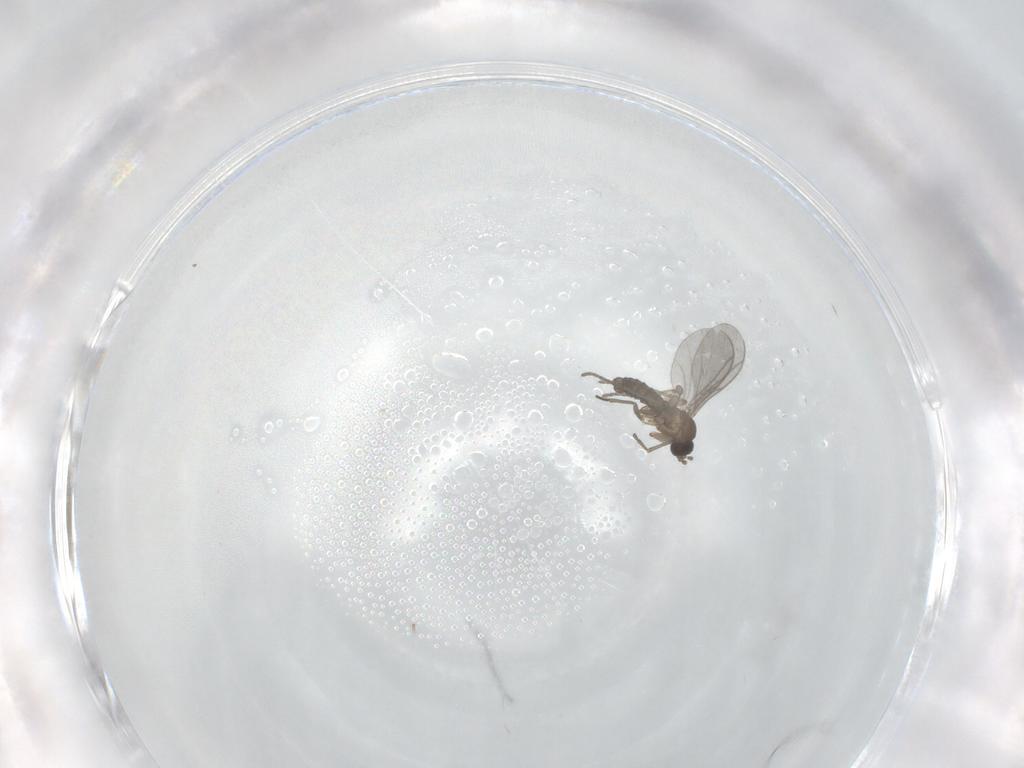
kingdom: Animalia
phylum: Arthropoda
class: Insecta
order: Diptera
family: Sciaridae
